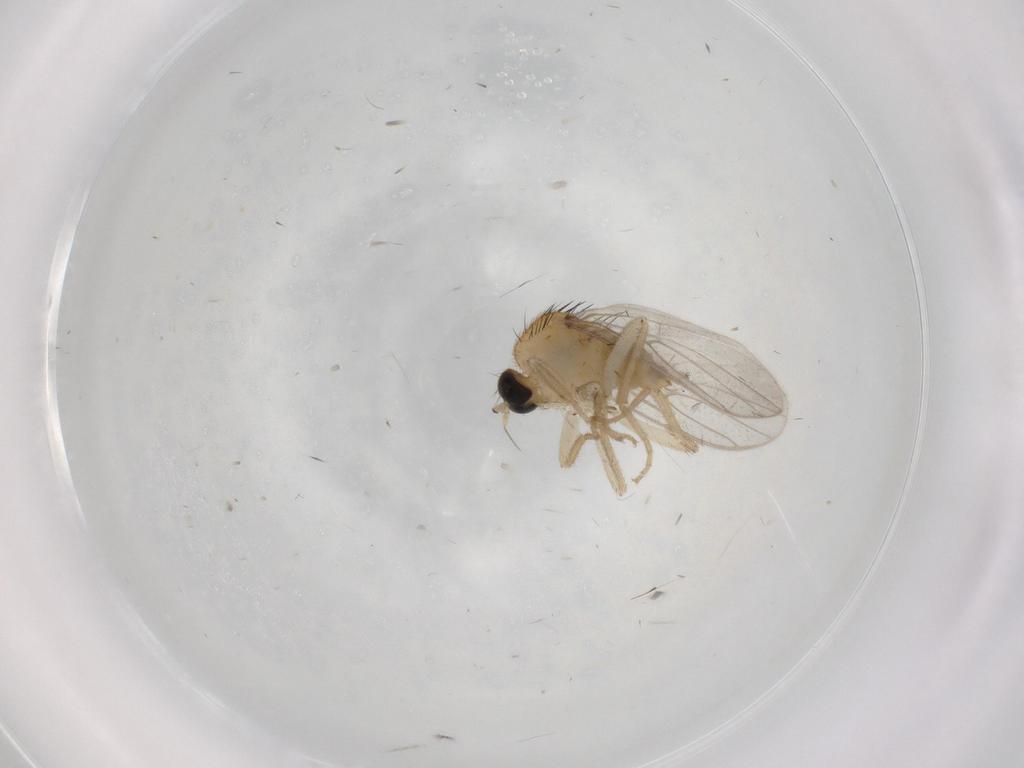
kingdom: Animalia
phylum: Arthropoda
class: Insecta
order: Diptera
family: Hybotidae
